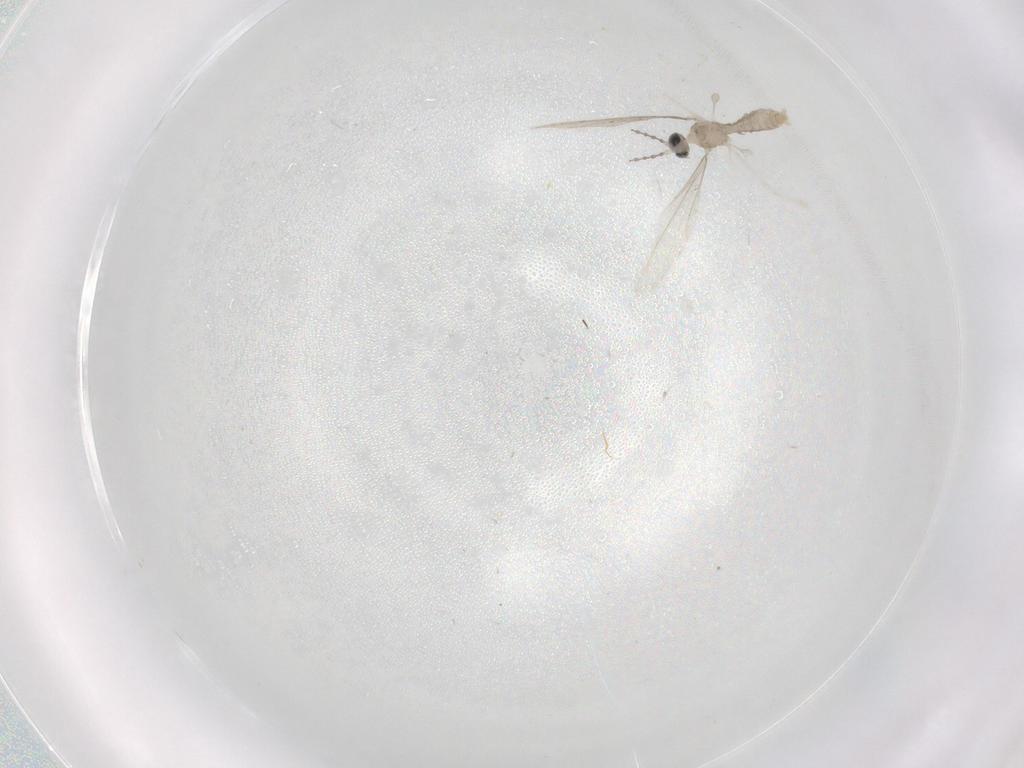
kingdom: Animalia
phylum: Arthropoda
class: Insecta
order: Diptera
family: Cecidomyiidae
